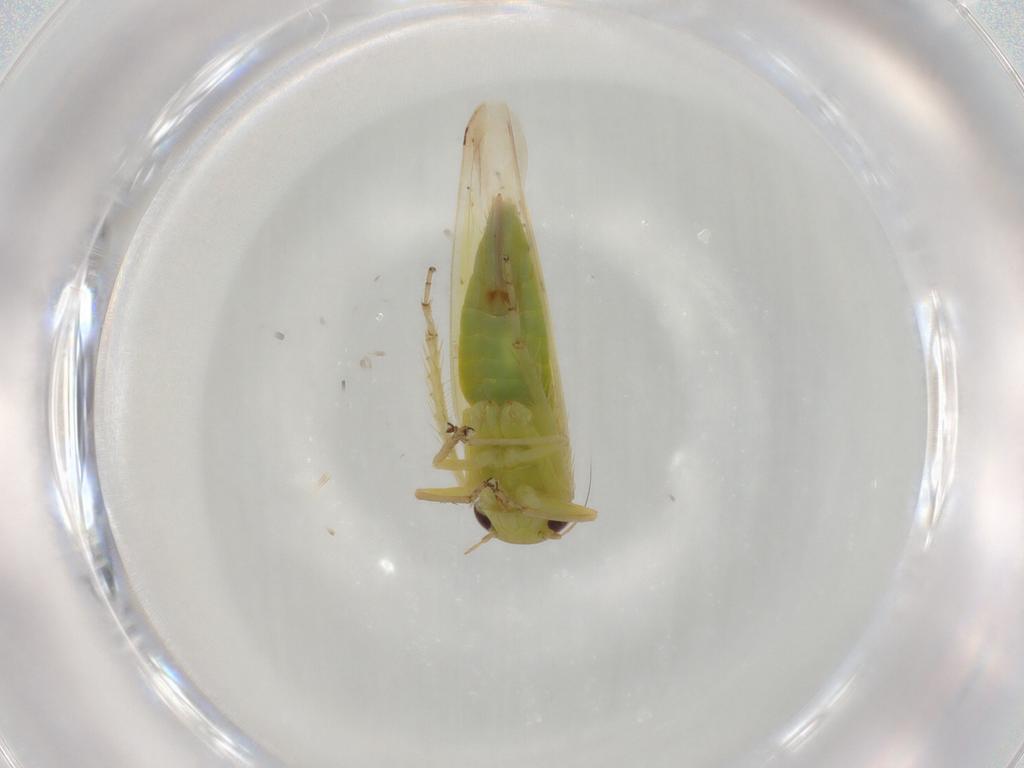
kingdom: Animalia
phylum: Arthropoda
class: Insecta
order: Hemiptera
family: Cicadellidae
